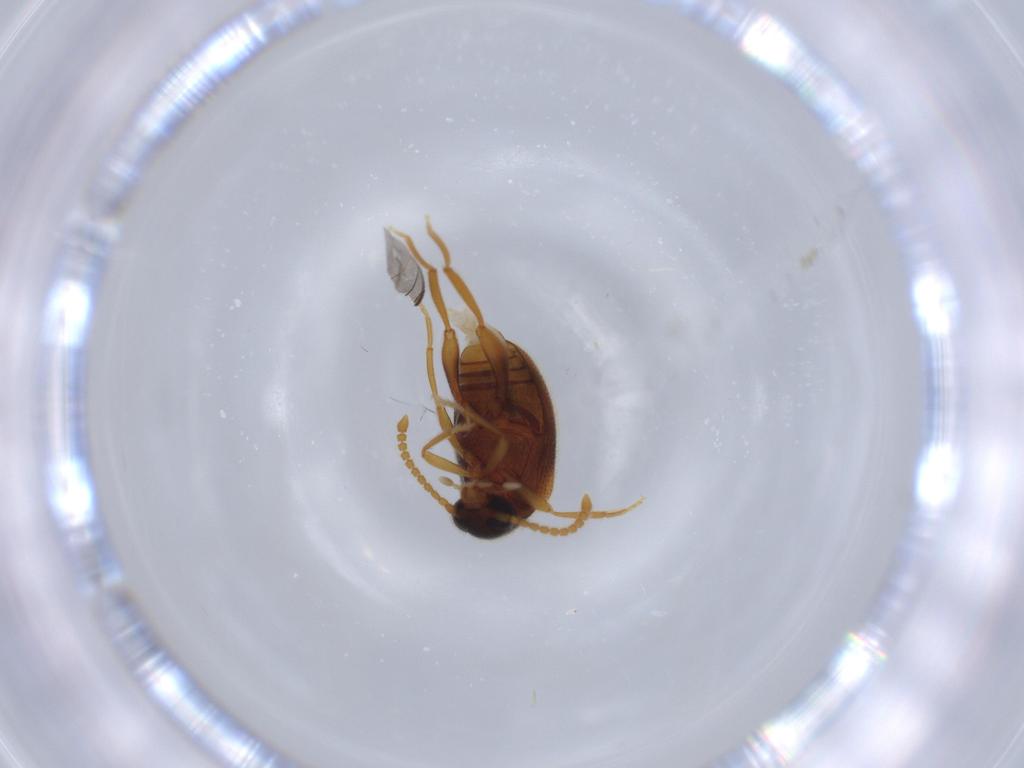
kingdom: Animalia
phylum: Arthropoda
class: Insecta
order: Coleoptera
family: Aderidae
